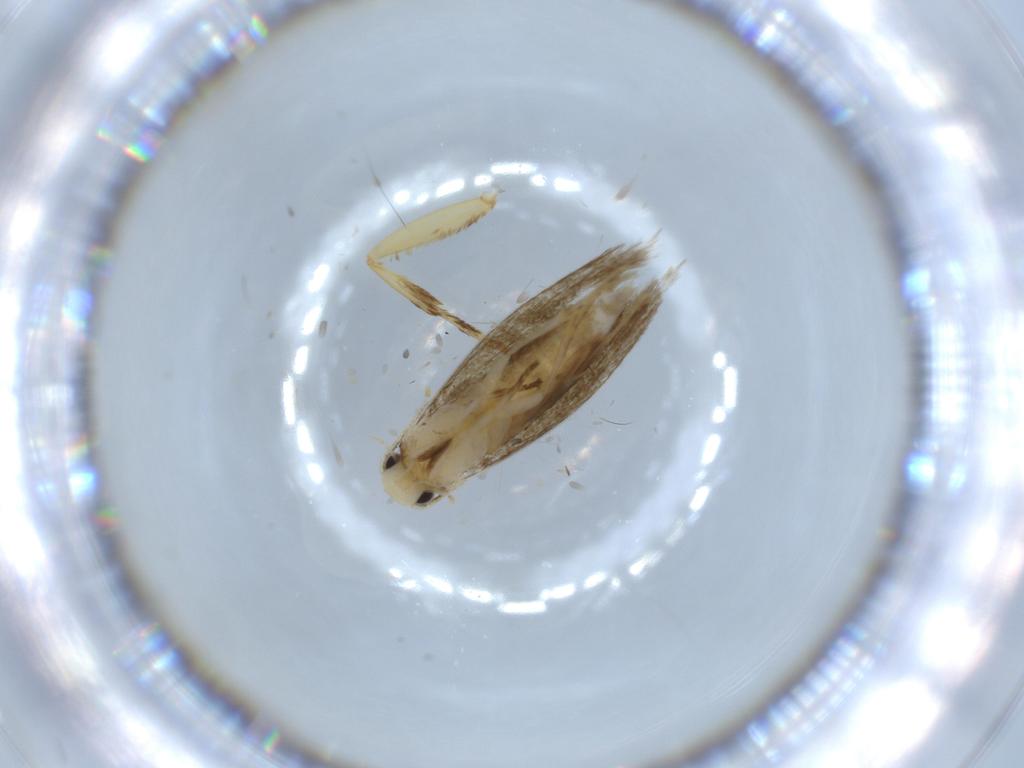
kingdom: Animalia
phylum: Arthropoda
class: Insecta
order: Lepidoptera
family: Tineidae
